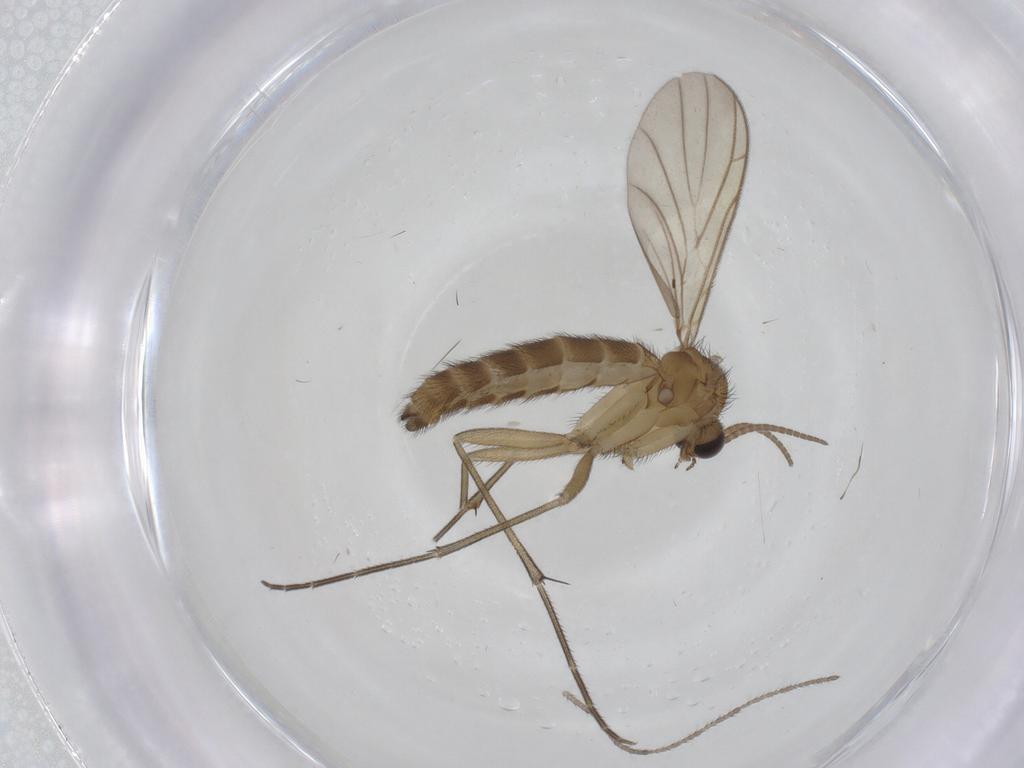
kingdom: Animalia
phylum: Arthropoda
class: Insecta
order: Diptera
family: Keroplatidae
